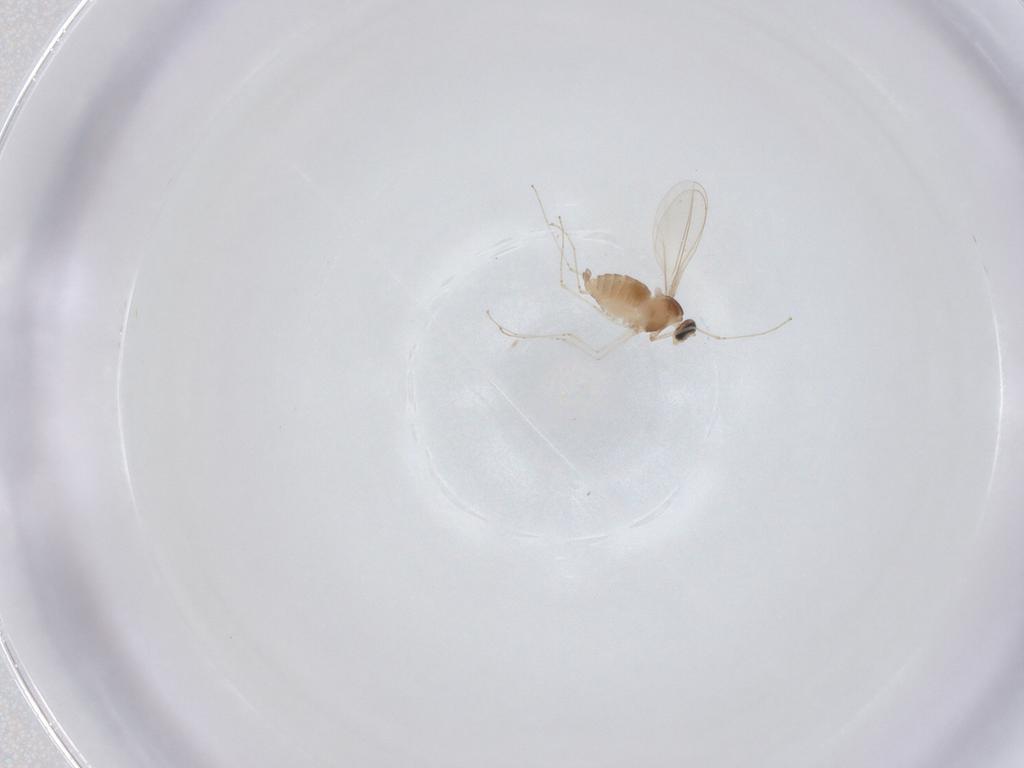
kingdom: Animalia
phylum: Arthropoda
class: Insecta
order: Diptera
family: Cecidomyiidae
